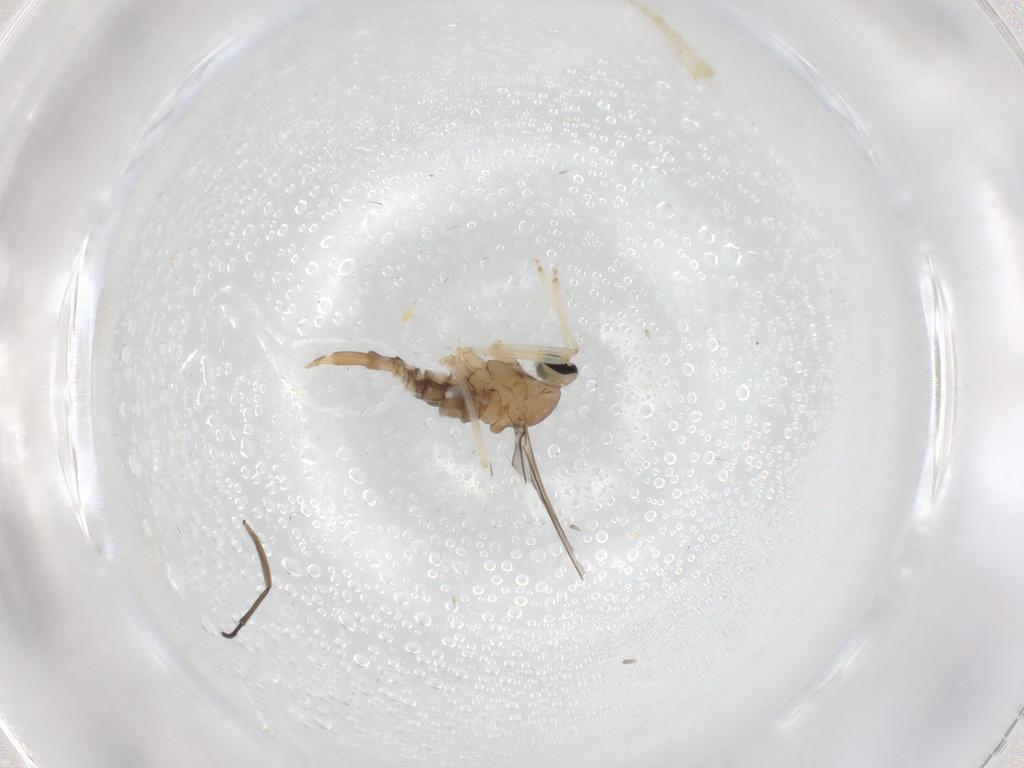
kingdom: Animalia
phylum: Arthropoda
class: Insecta
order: Diptera
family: Cecidomyiidae
